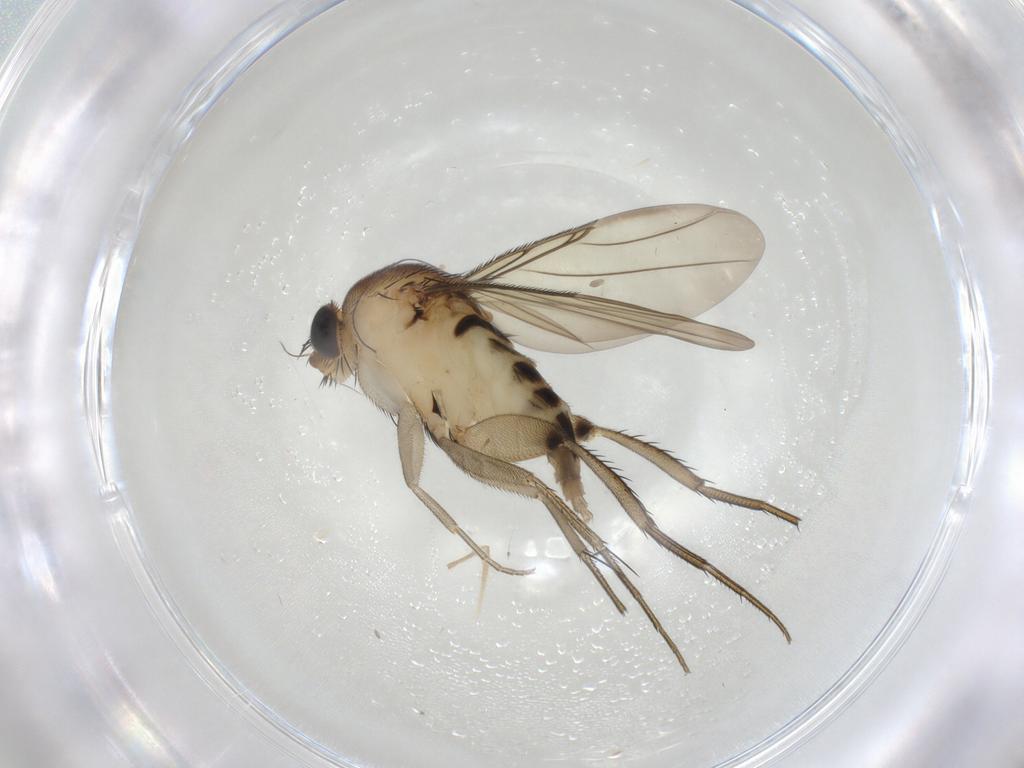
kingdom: Animalia
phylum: Arthropoda
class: Insecta
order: Diptera
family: Phoridae
